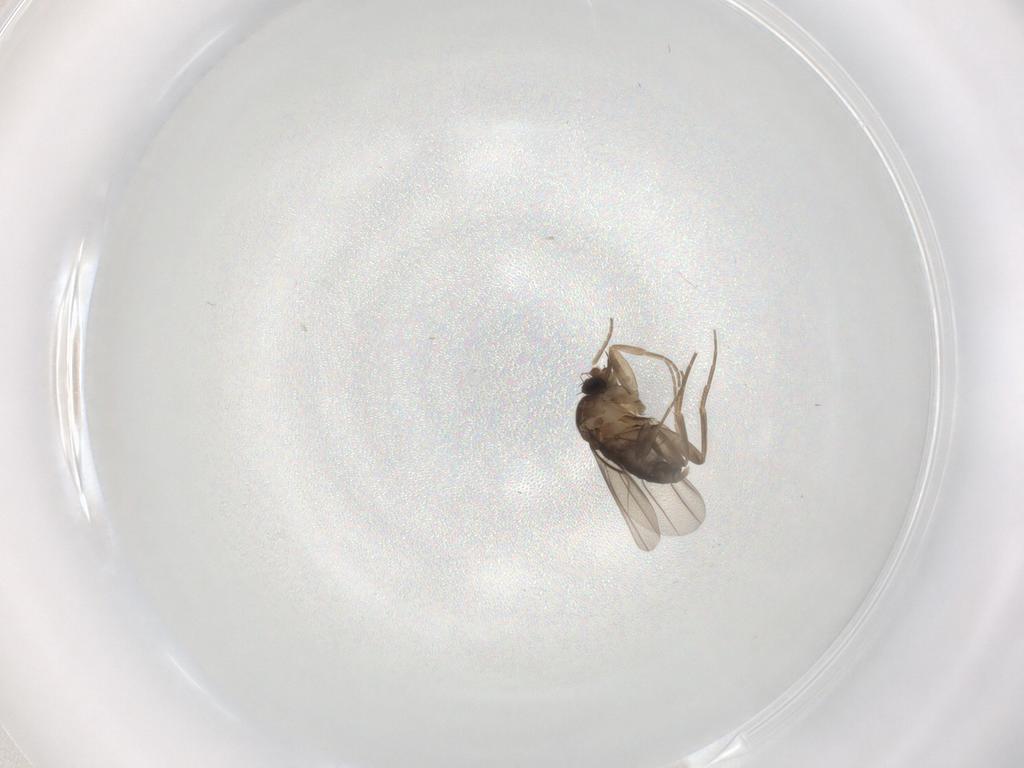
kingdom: Animalia
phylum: Arthropoda
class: Insecta
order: Diptera
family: Phoridae
